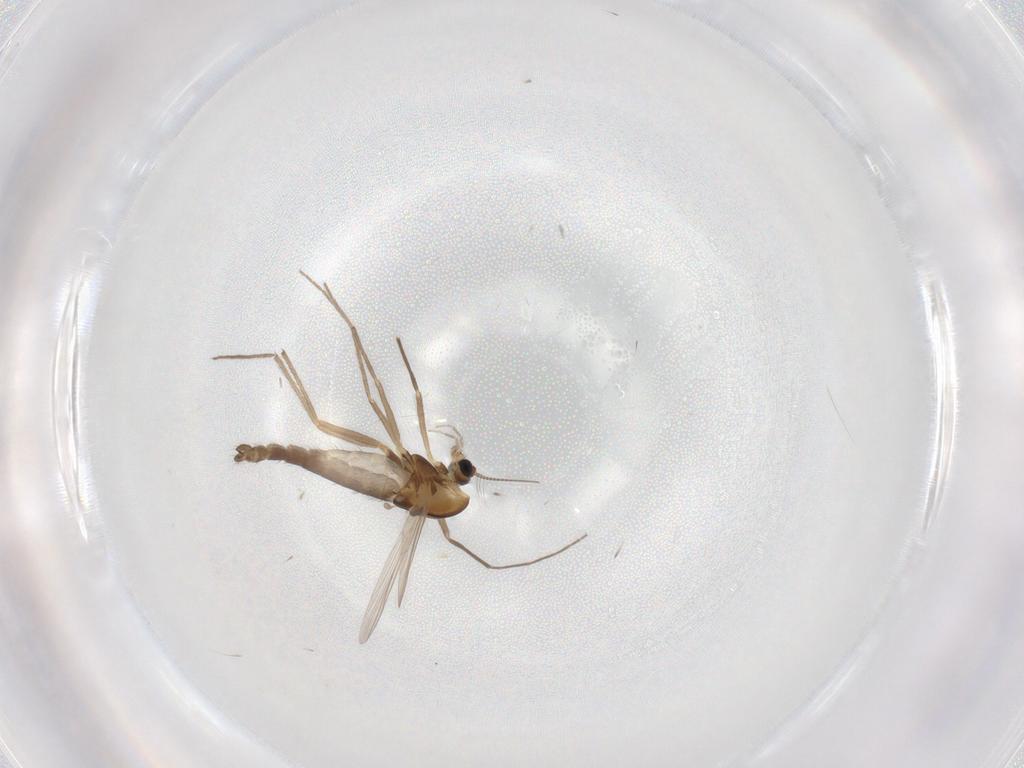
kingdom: Animalia
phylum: Arthropoda
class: Insecta
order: Diptera
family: Chironomidae
